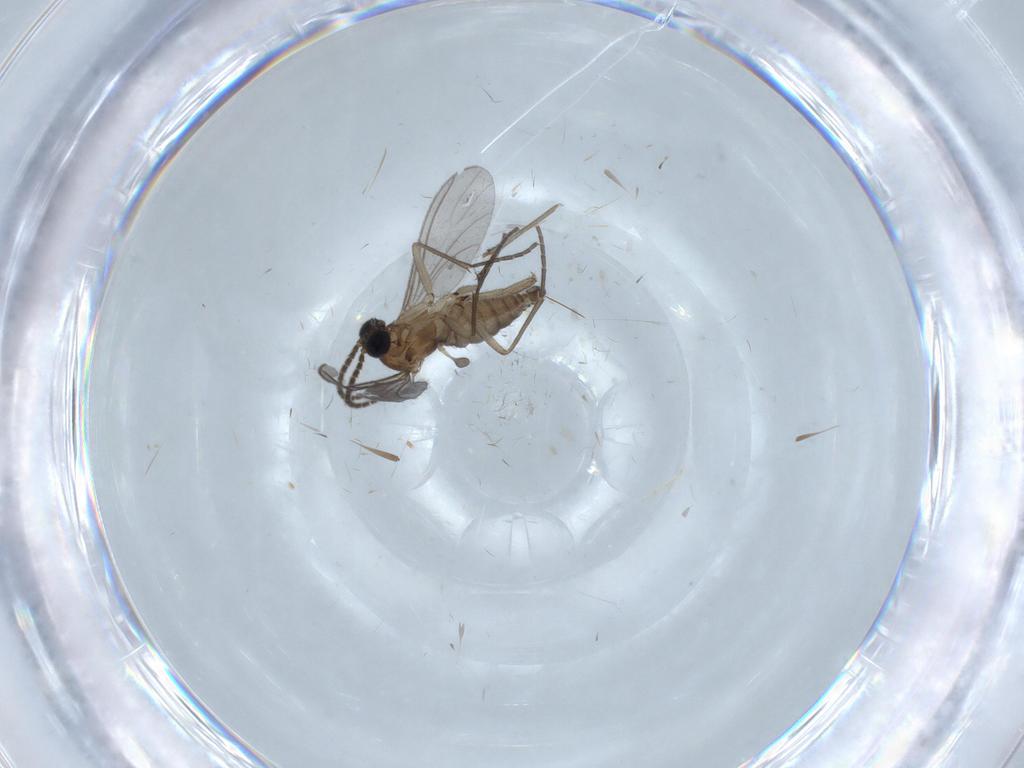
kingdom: Animalia
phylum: Arthropoda
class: Insecta
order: Diptera
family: Sciaridae
